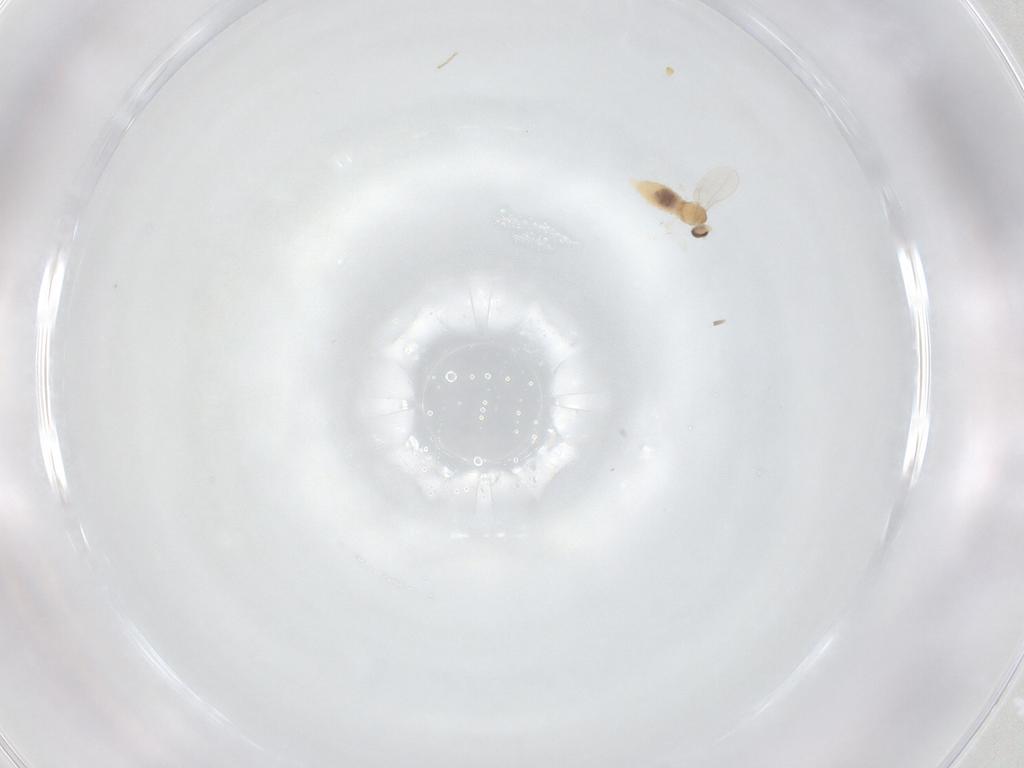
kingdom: Animalia
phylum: Arthropoda
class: Insecta
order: Diptera
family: Cecidomyiidae
